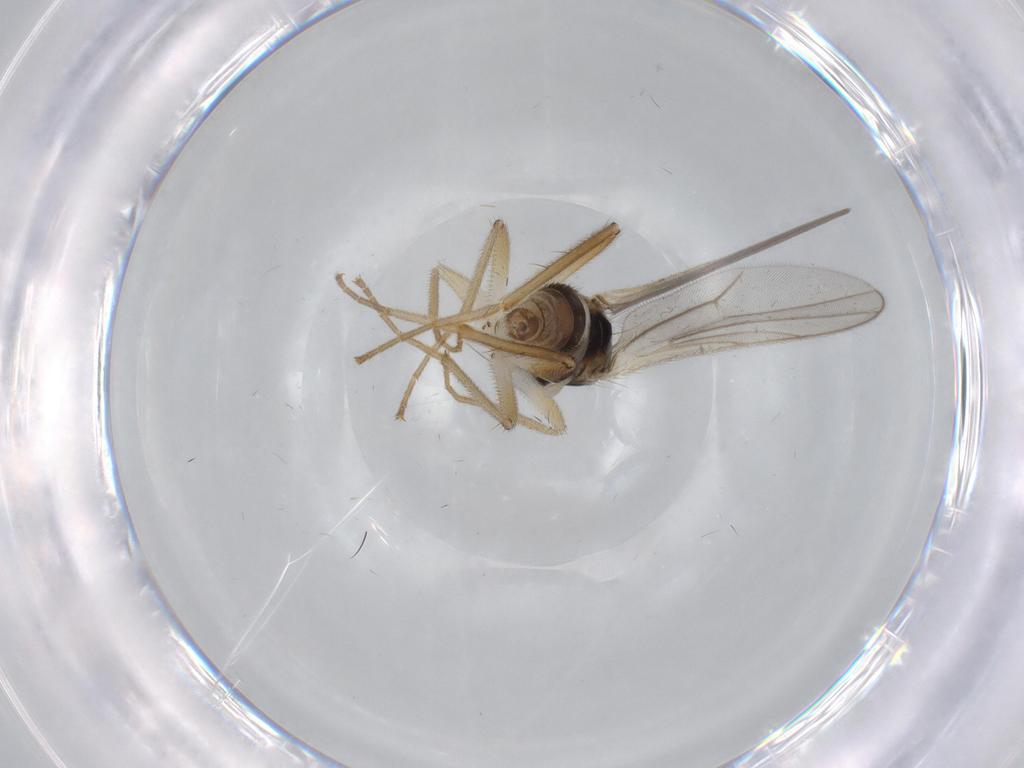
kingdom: Animalia
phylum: Arthropoda
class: Insecta
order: Diptera
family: Hybotidae
